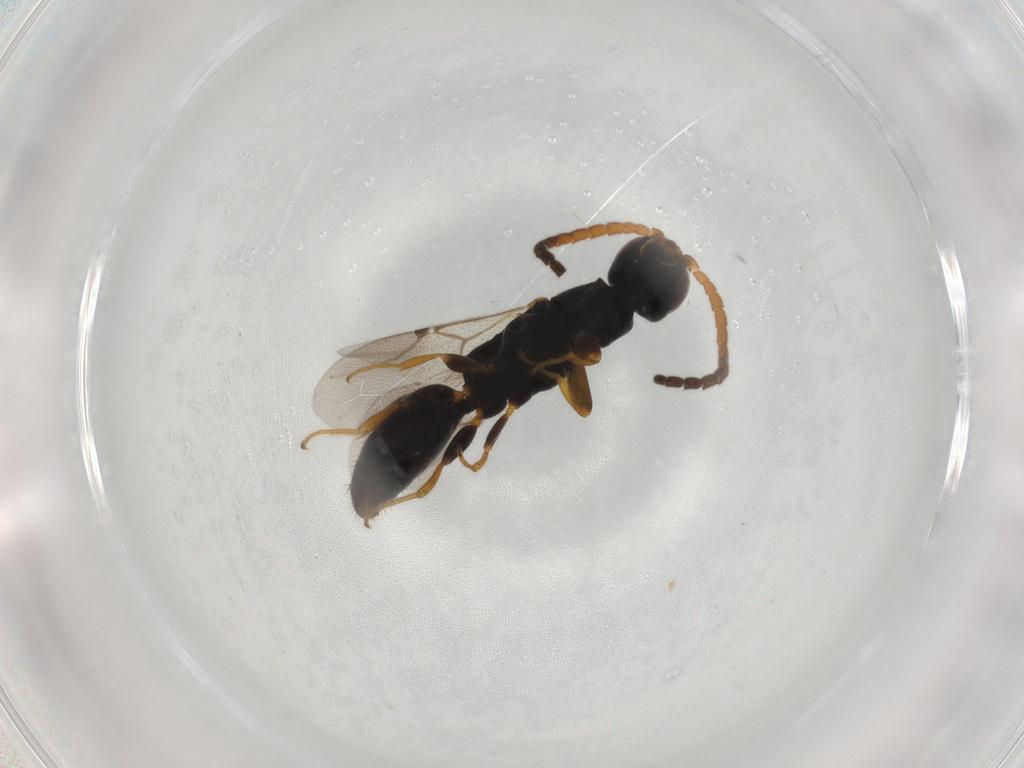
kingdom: Animalia
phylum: Arthropoda
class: Insecta
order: Hymenoptera
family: Bethylidae
